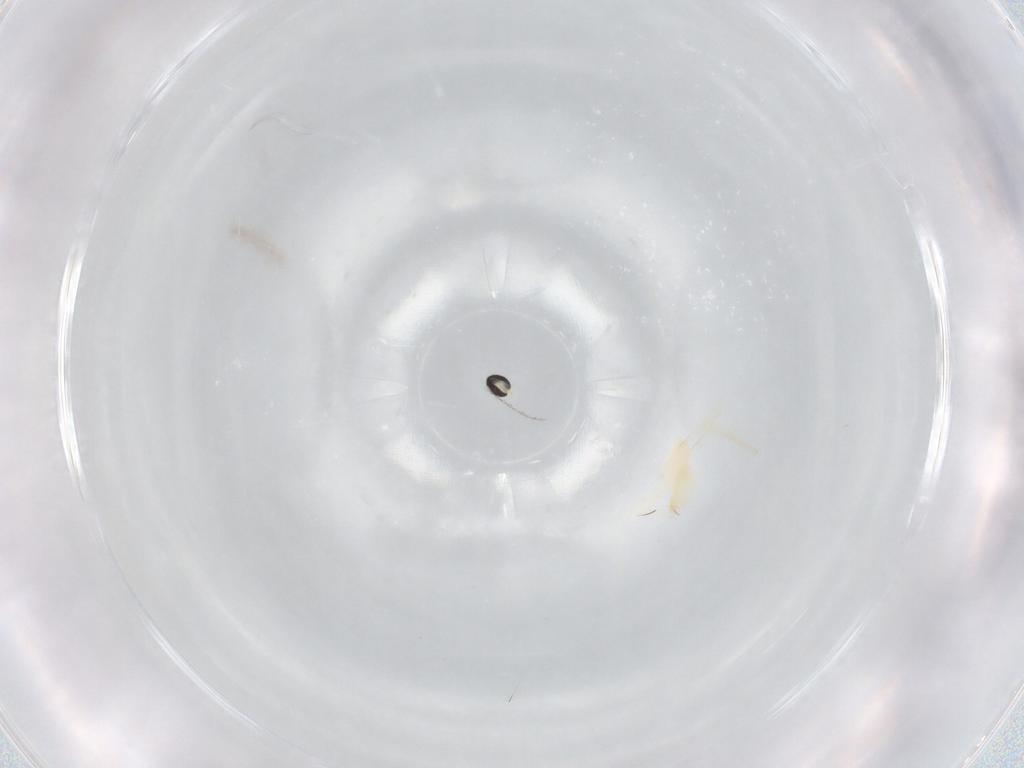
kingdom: Animalia
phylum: Arthropoda
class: Insecta
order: Diptera
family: Cecidomyiidae
